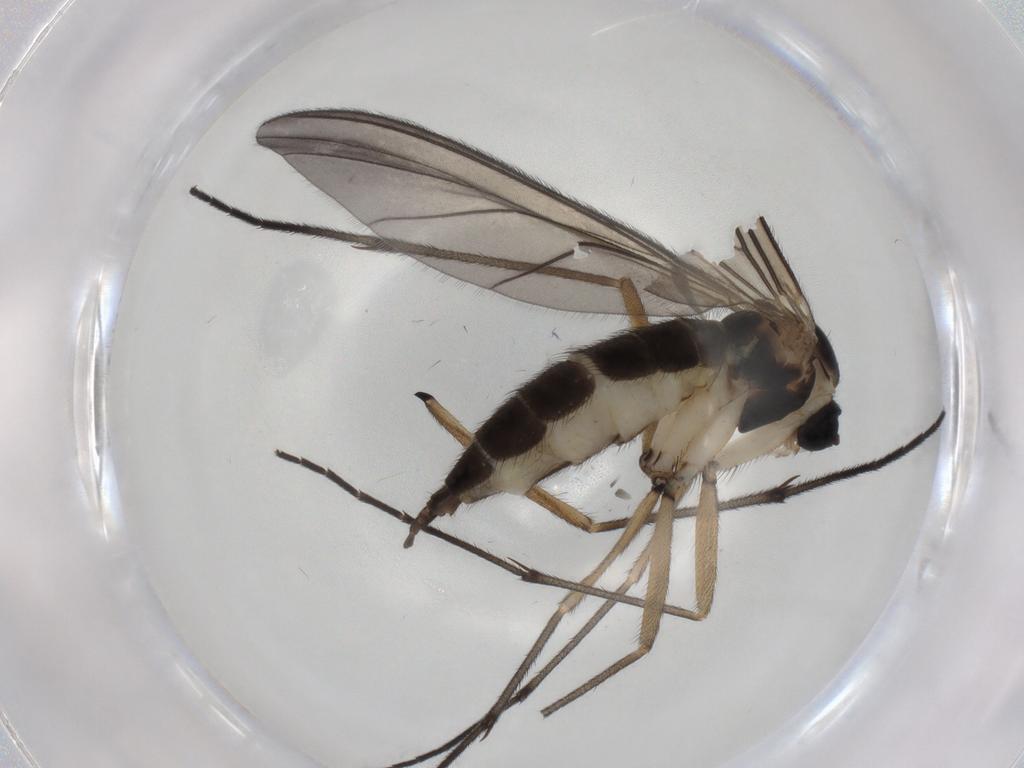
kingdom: Animalia
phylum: Arthropoda
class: Insecta
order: Diptera
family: Sciaridae
